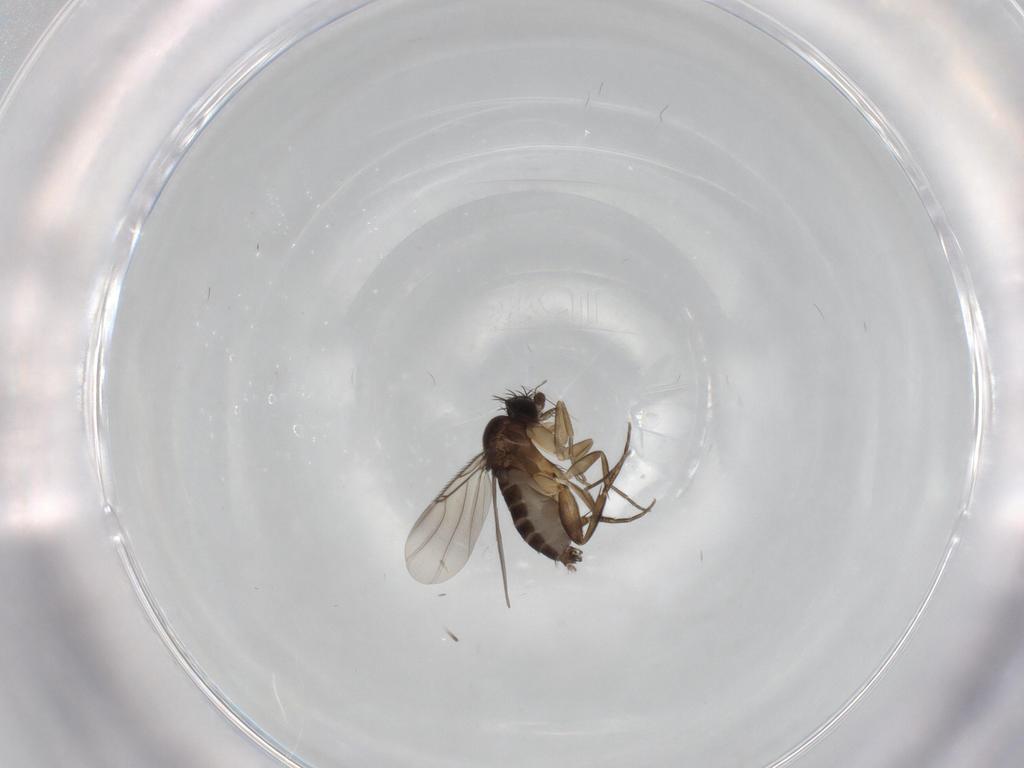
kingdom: Animalia
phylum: Arthropoda
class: Insecta
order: Diptera
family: Phoridae
